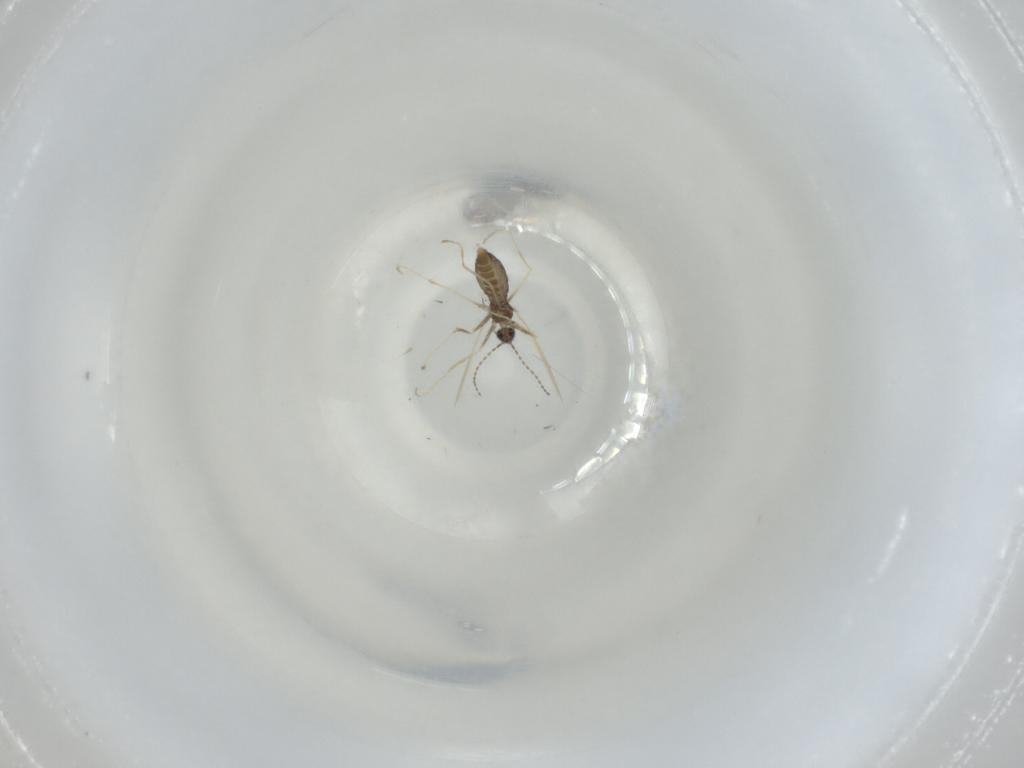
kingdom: Animalia
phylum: Arthropoda
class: Insecta
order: Diptera
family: Cecidomyiidae
